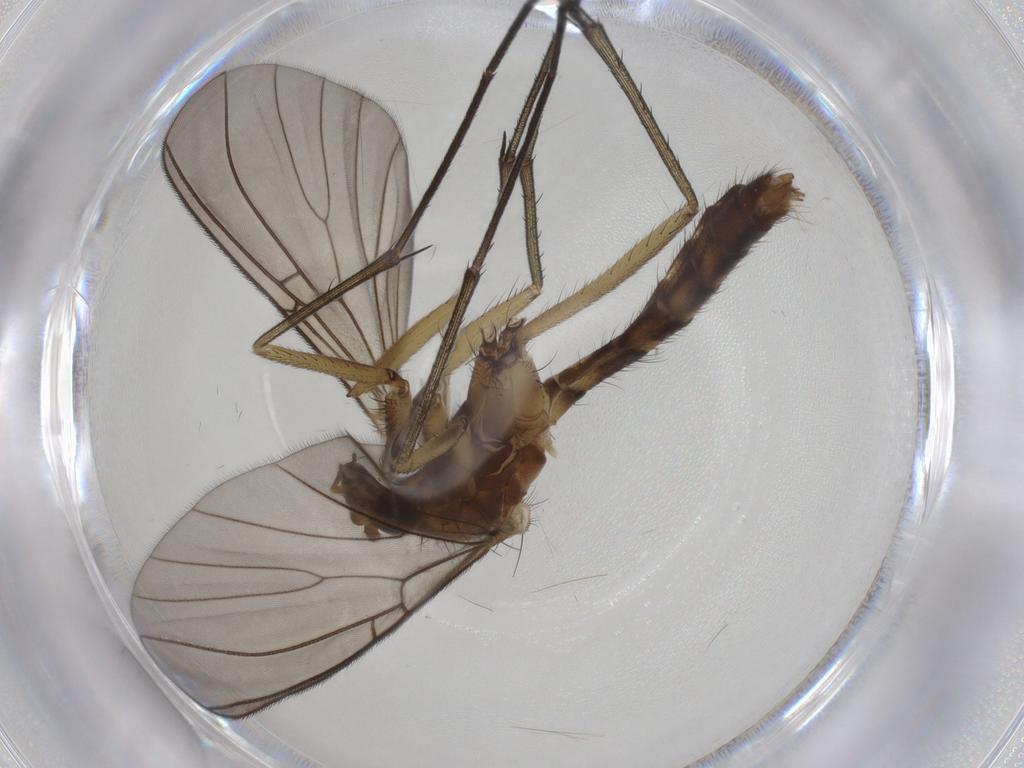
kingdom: Animalia
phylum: Arthropoda
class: Insecta
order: Diptera
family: Mycetophilidae
